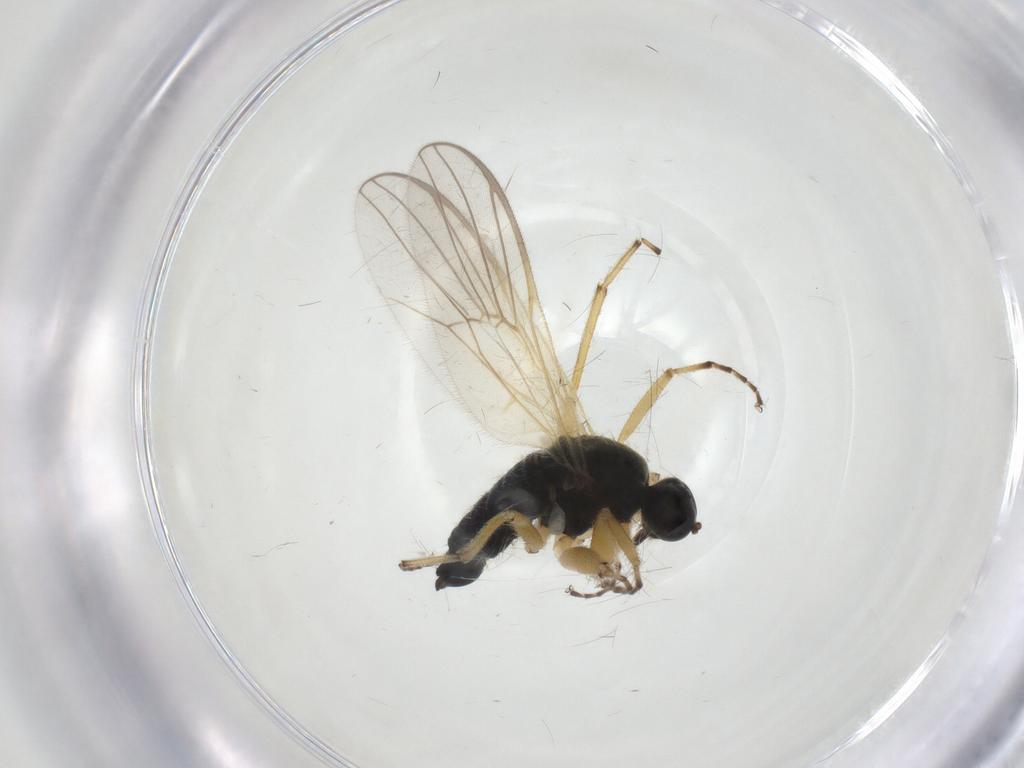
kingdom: Animalia
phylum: Arthropoda
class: Insecta
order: Diptera
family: Hybotidae
